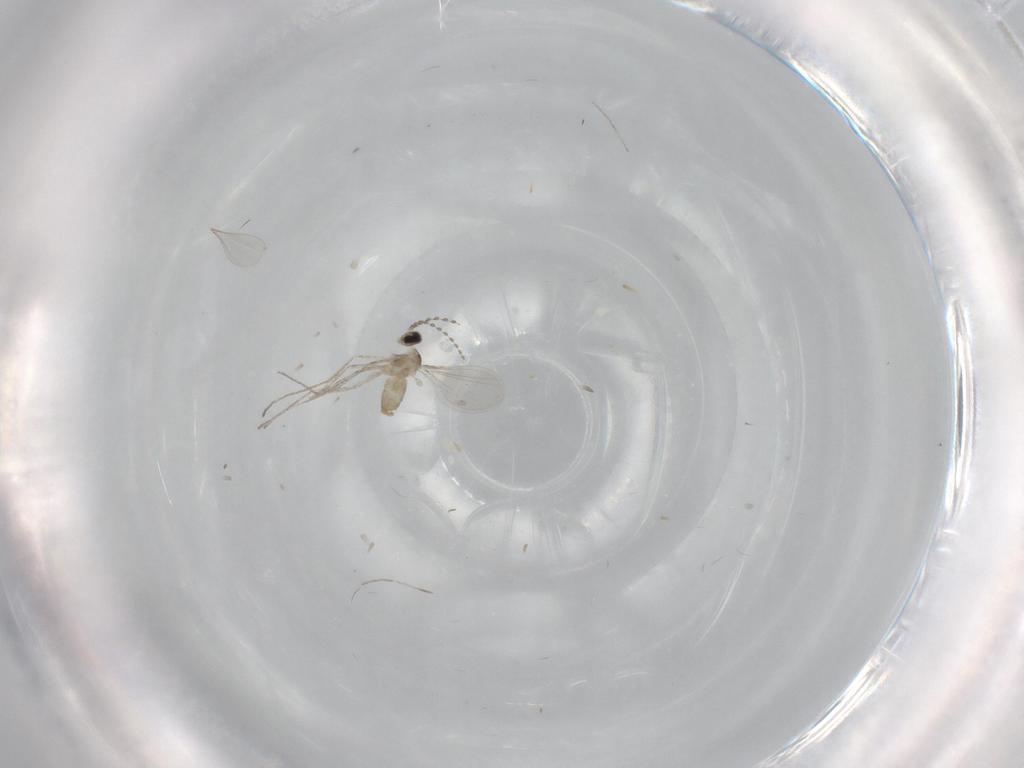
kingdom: Animalia
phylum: Arthropoda
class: Insecta
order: Diptera
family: Cecidomyiidae
